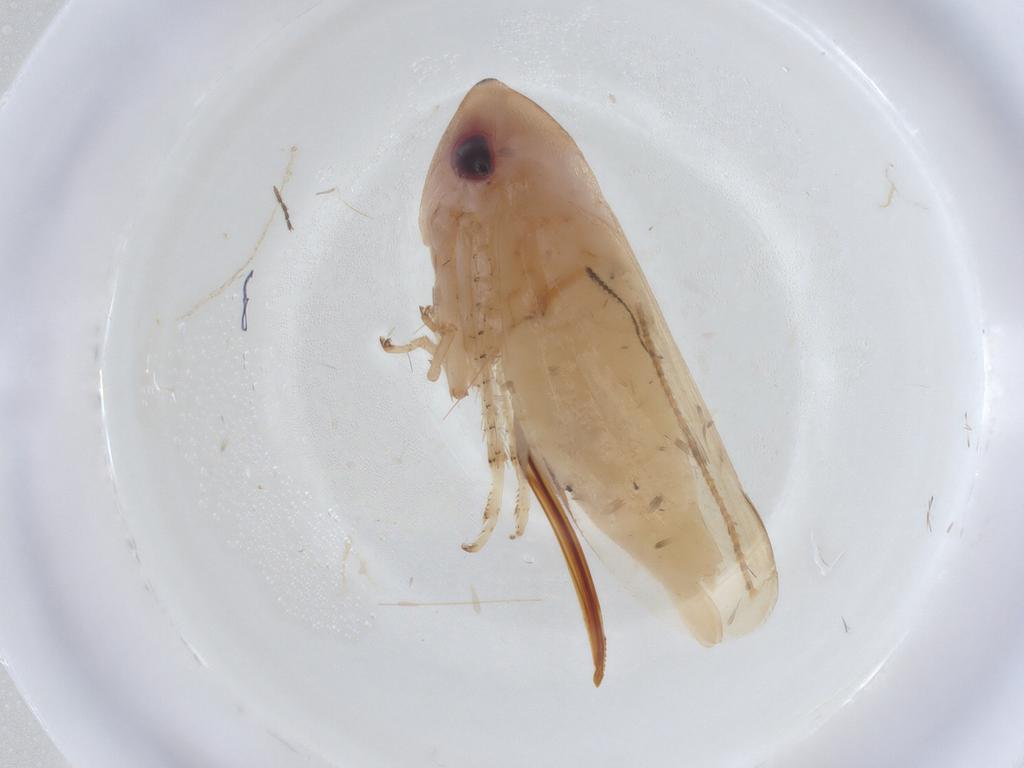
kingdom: Animalia
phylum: Arthropoda
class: Insecta
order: Hemiptera
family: Cicadellidae
